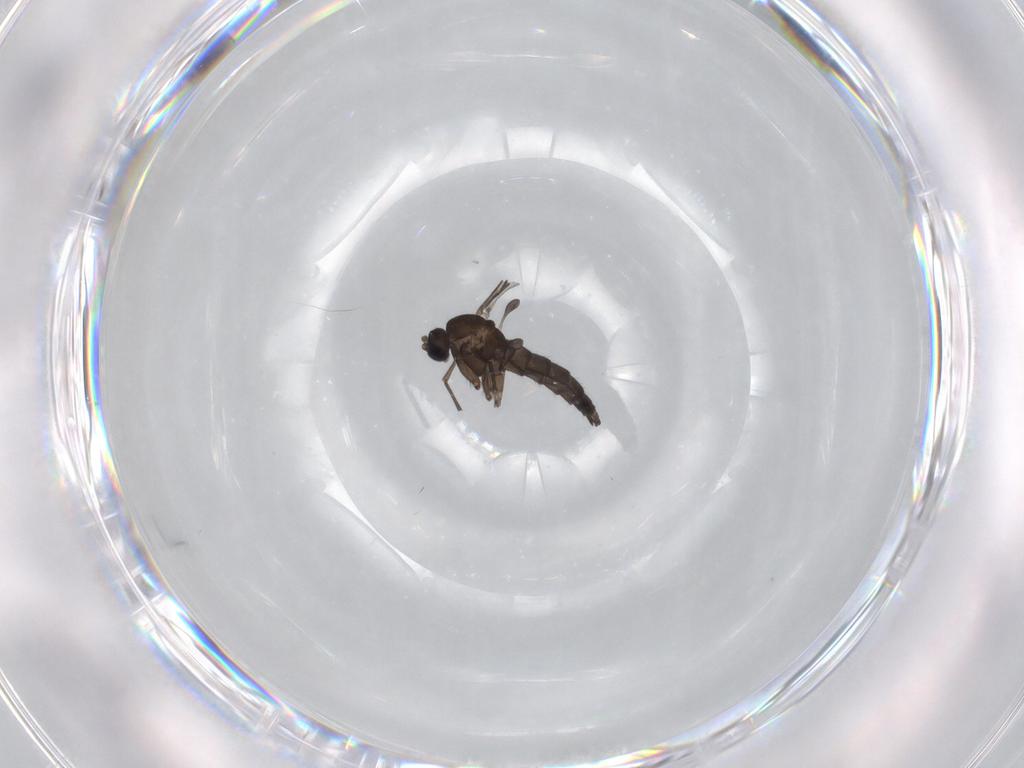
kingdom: Animalia
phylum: Arthropoda
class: Insecta
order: Diptera
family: Sciaridae
